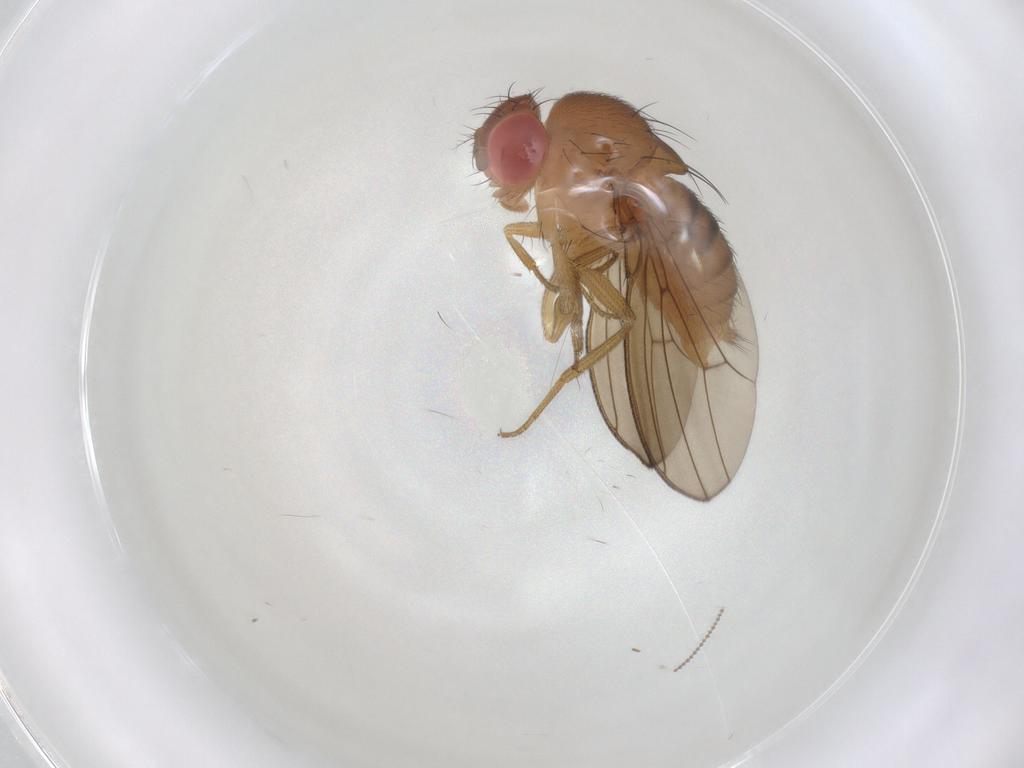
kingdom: Animalia
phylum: Arthropoda
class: Insecta
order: Diptera
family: Drosophilidae
